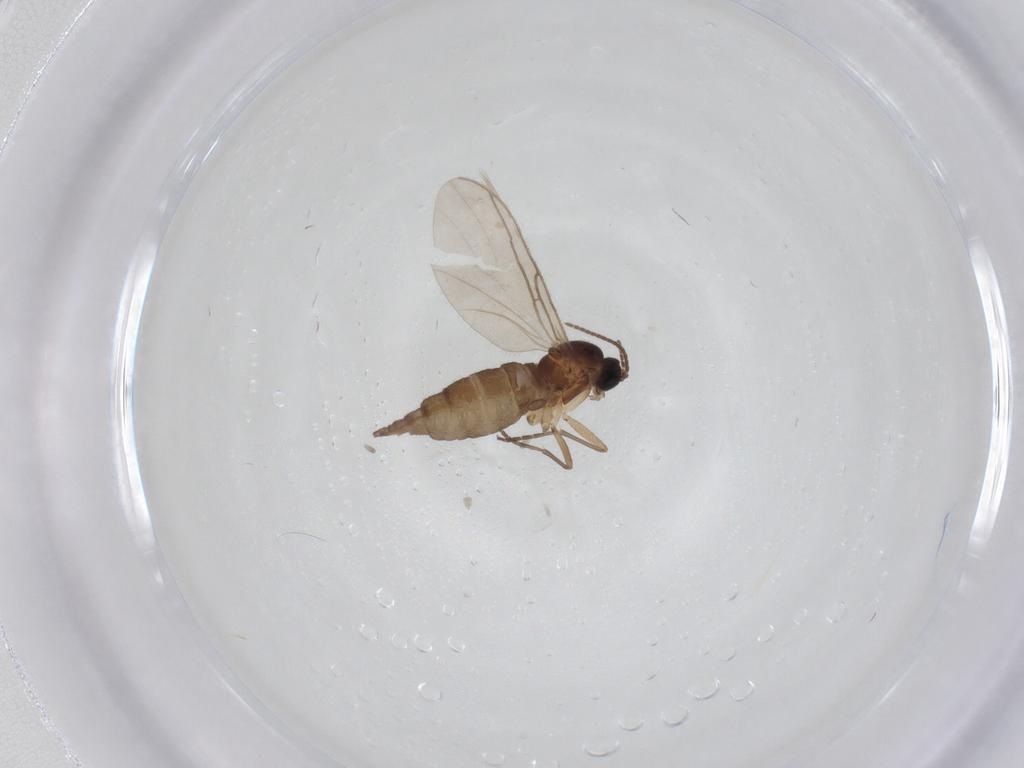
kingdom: Animalia
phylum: Arthropoda
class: Insecta
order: Diptera
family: Sciaridae
